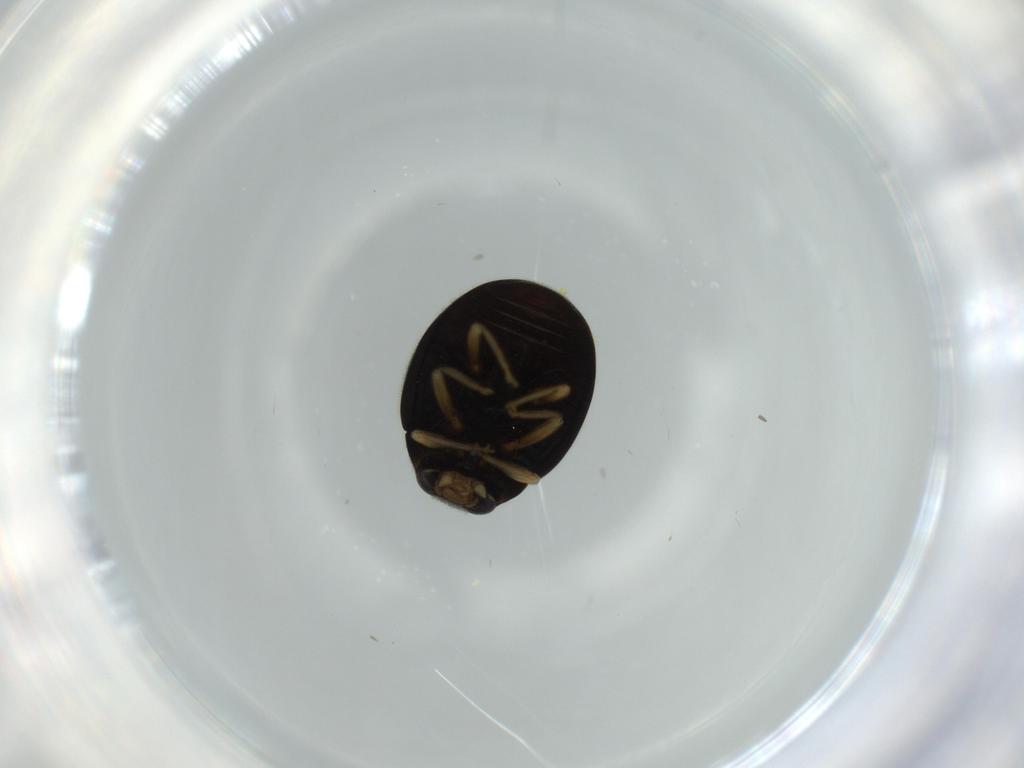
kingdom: Animalia
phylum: Arthropoda
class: Insecta
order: Coleoptera
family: Coccinellidae
